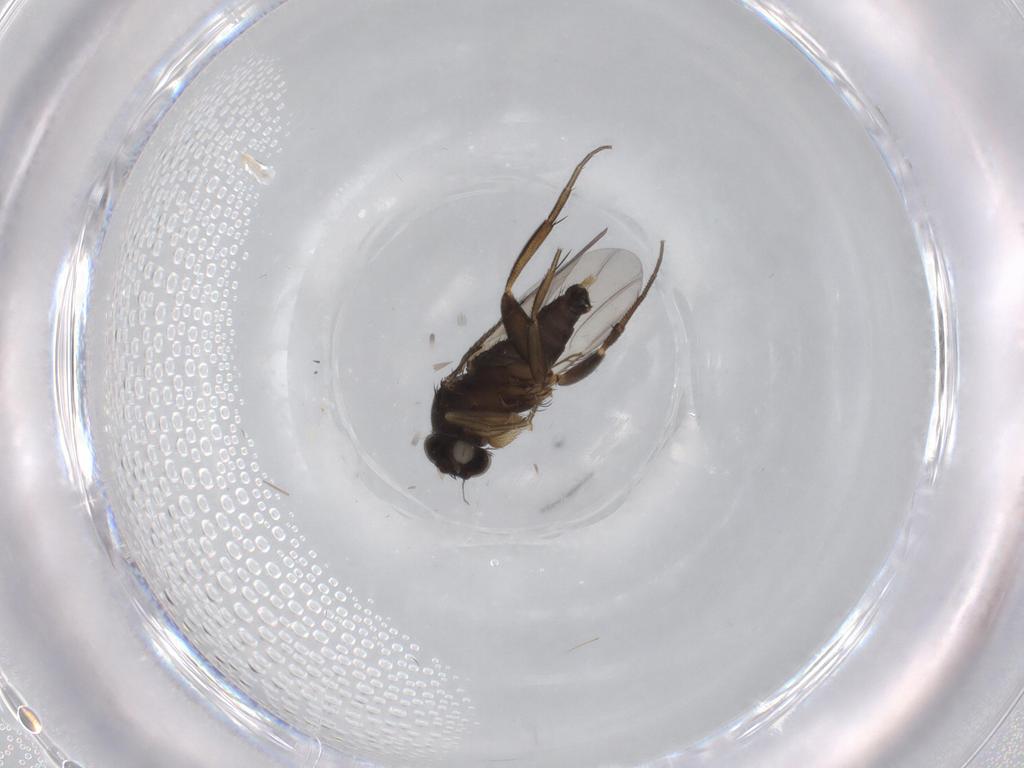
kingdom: Animalia
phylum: Arthropoda
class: Insecta
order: Diptera
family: Phoridae
